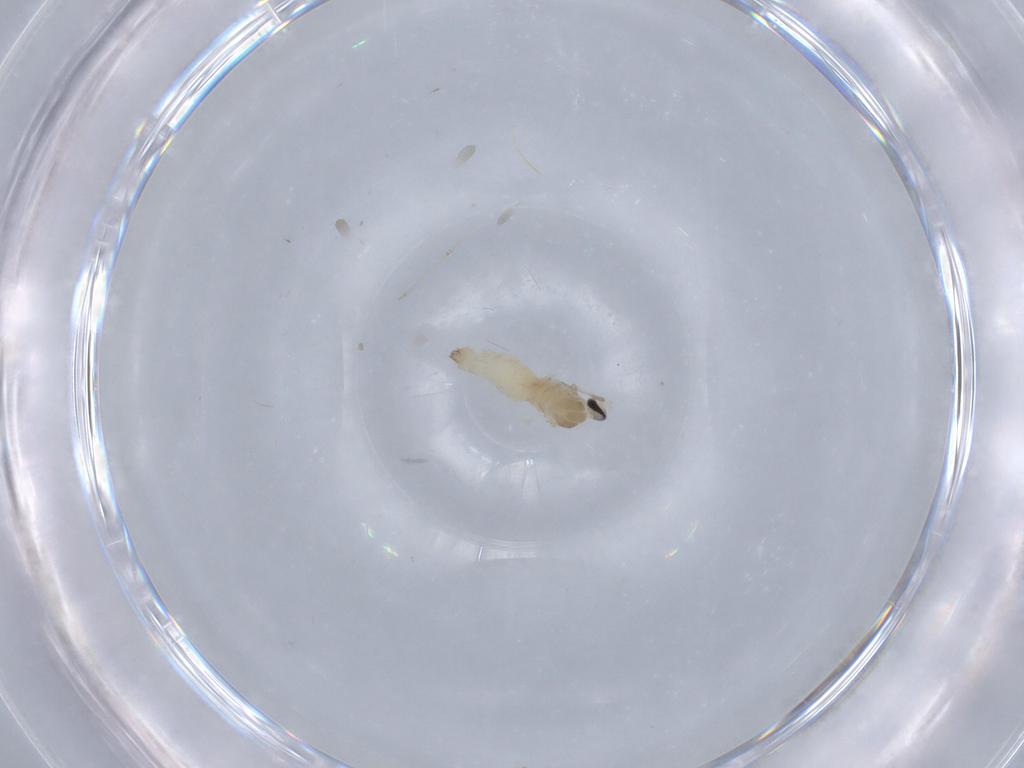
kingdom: Animalia
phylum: Arthropoda
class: Insecta
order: Diptera
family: Cecidomyiidae
